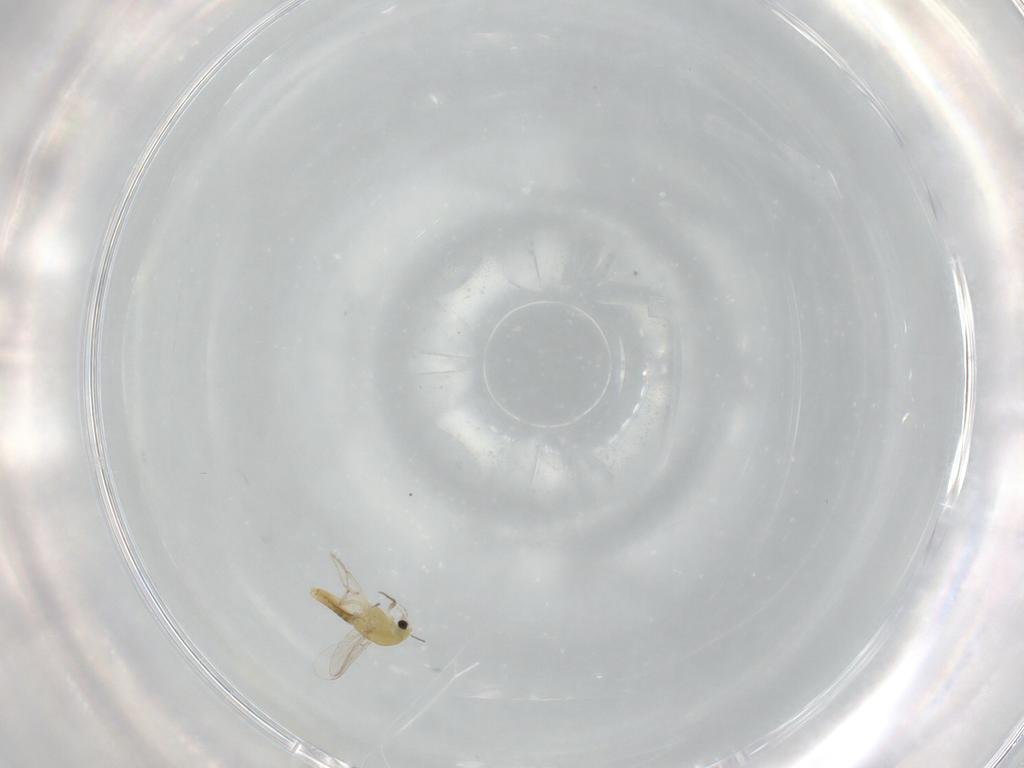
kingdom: Animalia
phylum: Arthropoda
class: Insecta
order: Diptera
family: Chironomidae
